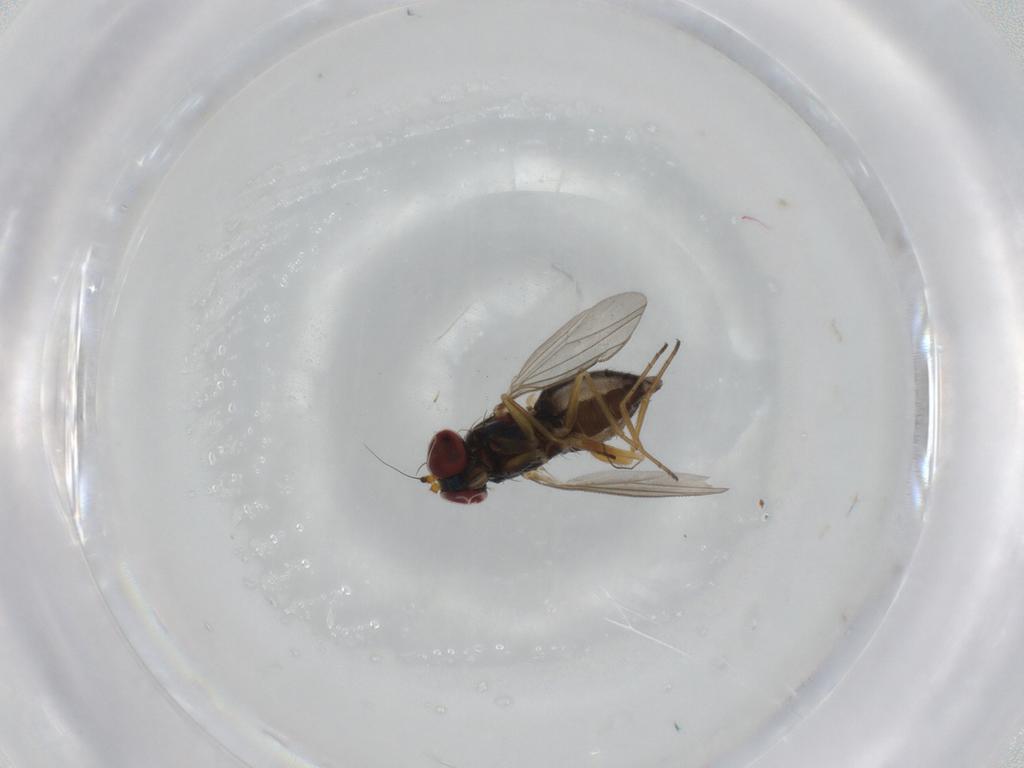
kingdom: Animalia
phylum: Arthropoda
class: Insecta
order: Diptera
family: Dolichopodidae
